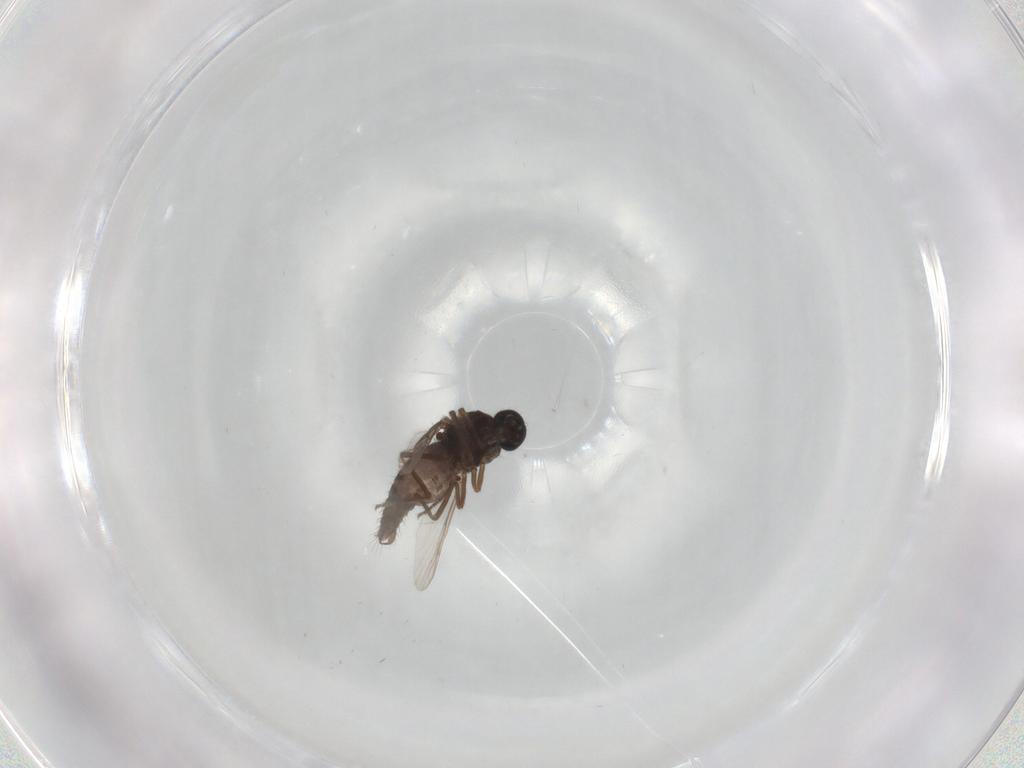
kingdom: Animalia
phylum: Arthropoda
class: Insecta
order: Diptera
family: Ceratopogonidae
